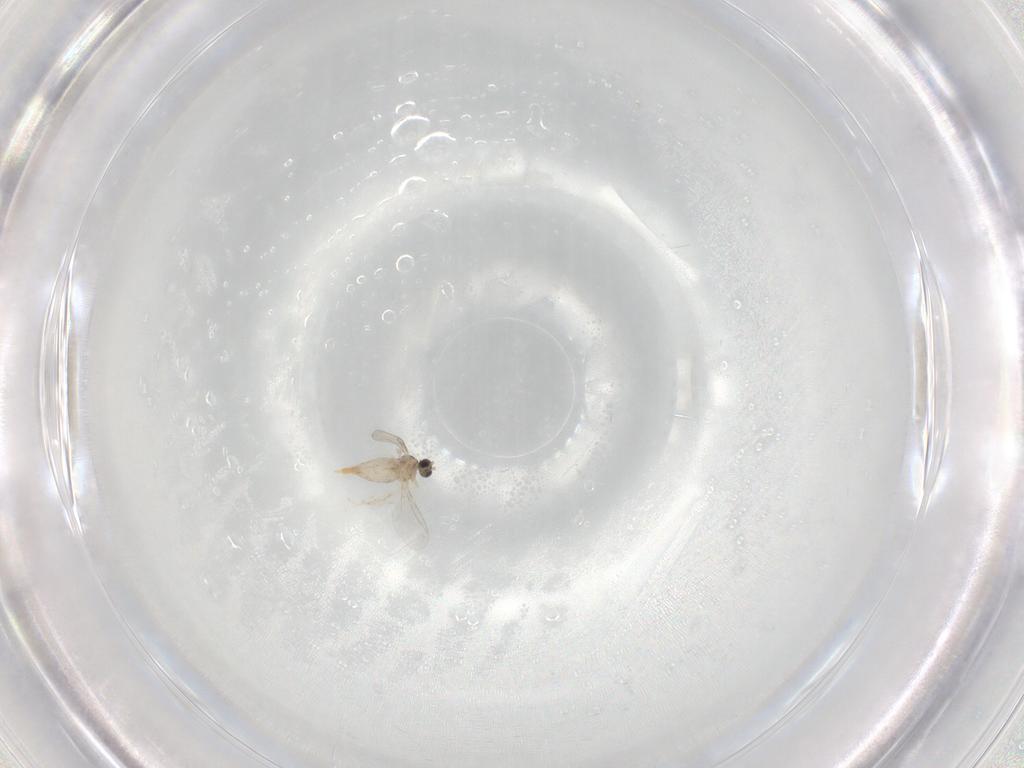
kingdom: Animalia
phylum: Arthropoda
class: Insecta
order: Diptera
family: Cecidomyiidae
